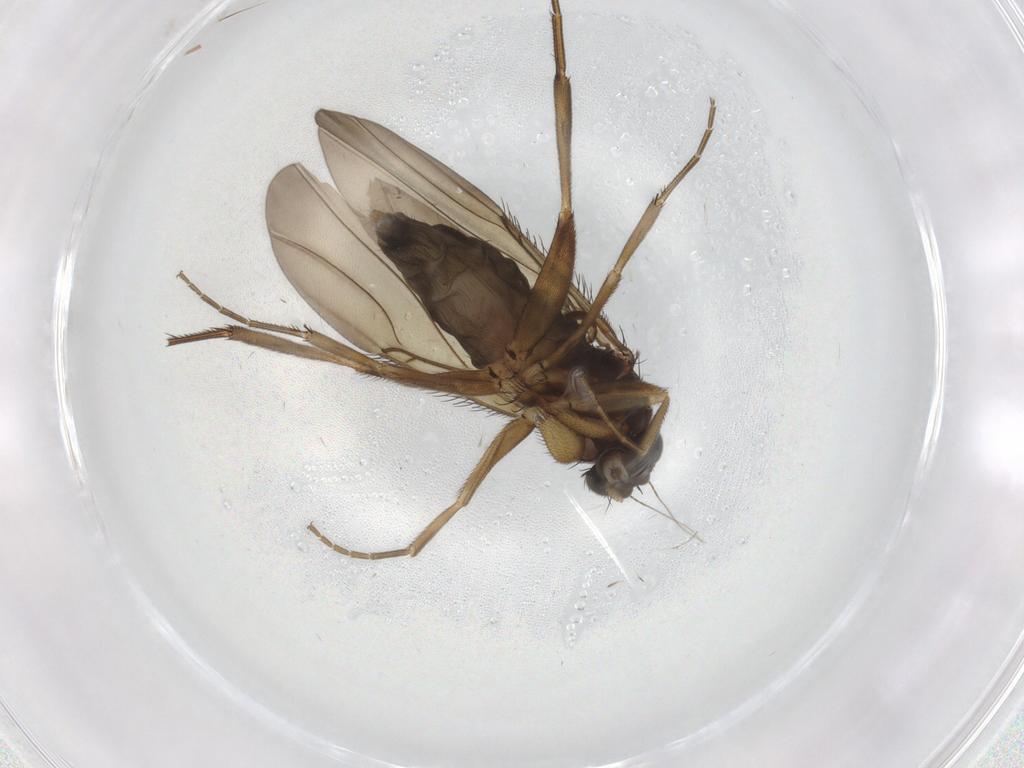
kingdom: Animalia
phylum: Arthropoda
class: Insecta
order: Diptera
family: Phoridae
